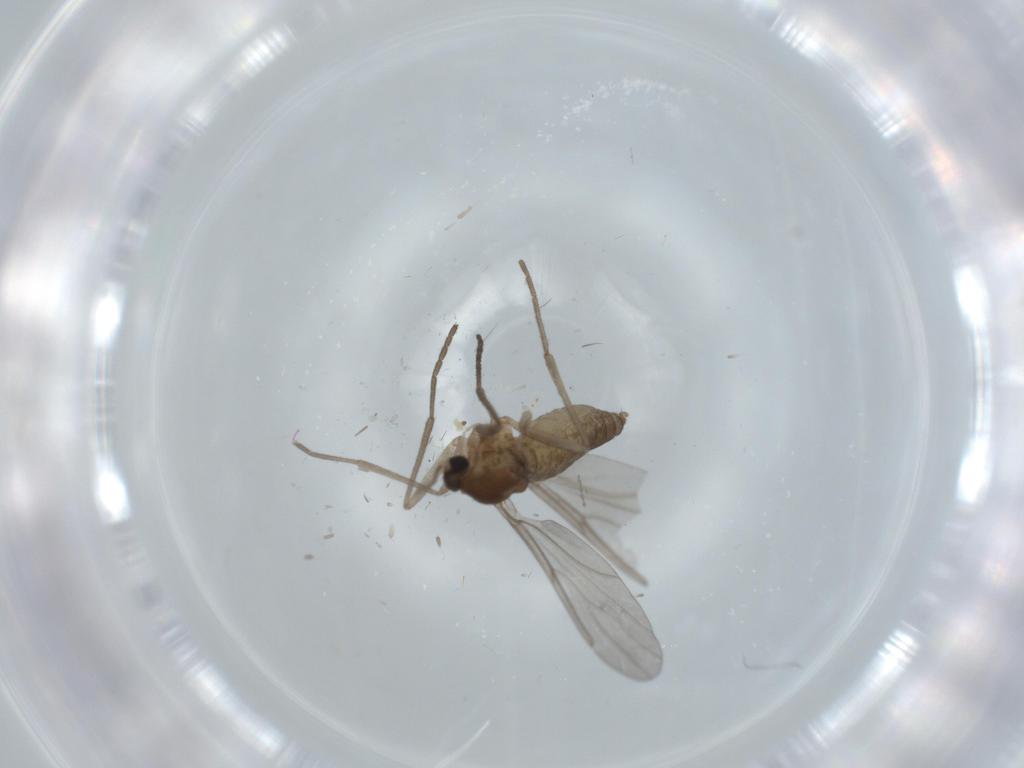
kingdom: Animalia
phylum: Arthropoda
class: Insecta
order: Diptera
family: Cecidomyiidae
